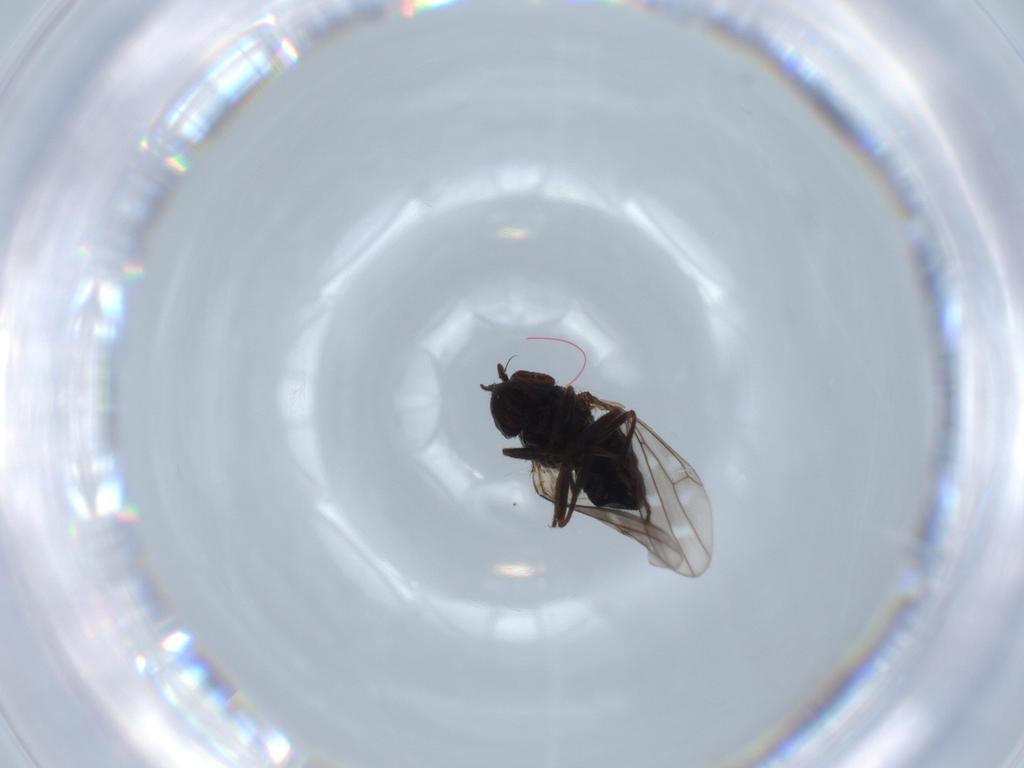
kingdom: Animalia
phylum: Arthropoda
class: Insecta
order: Diptera
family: Ephydridae
